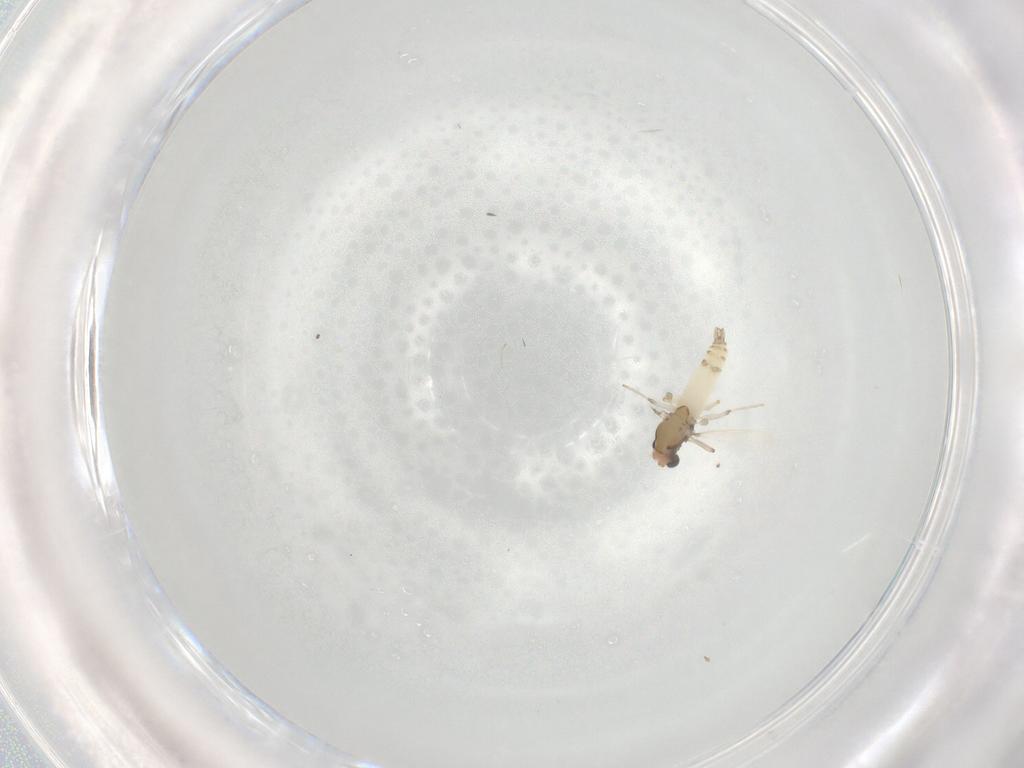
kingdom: Animalia
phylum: Arthropoda
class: Insecta
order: Diptera
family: Chironomidae
